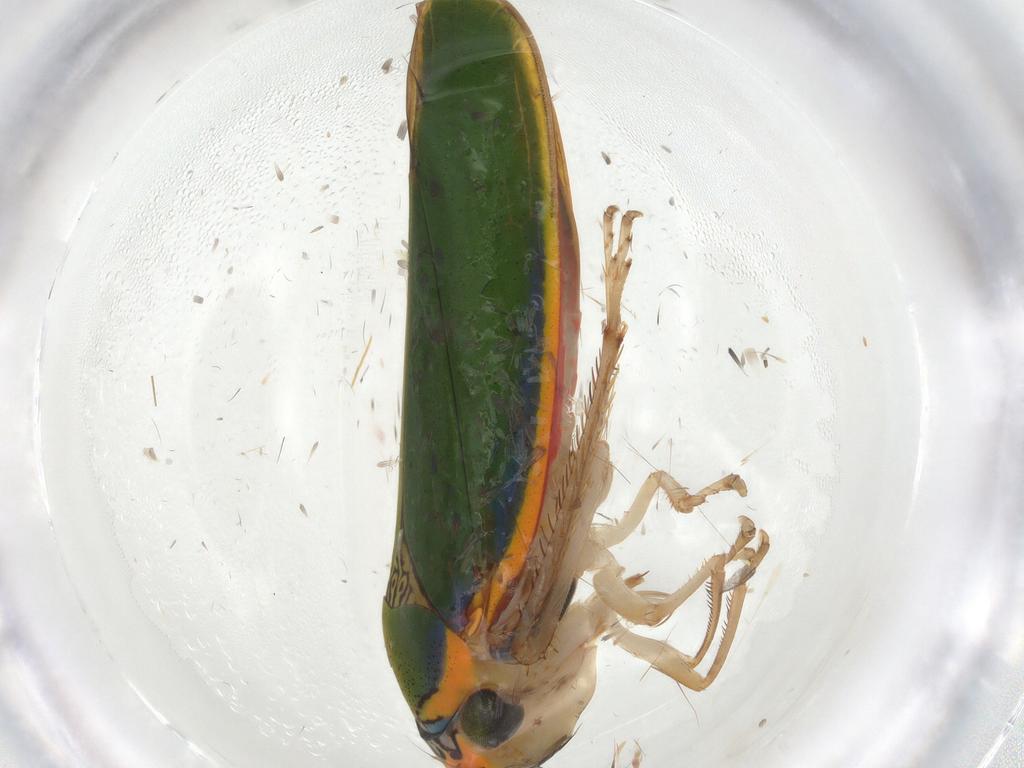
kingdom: Animalia
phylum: Arthropoda
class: Insecta
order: Hemiptera
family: Cicadellidae
